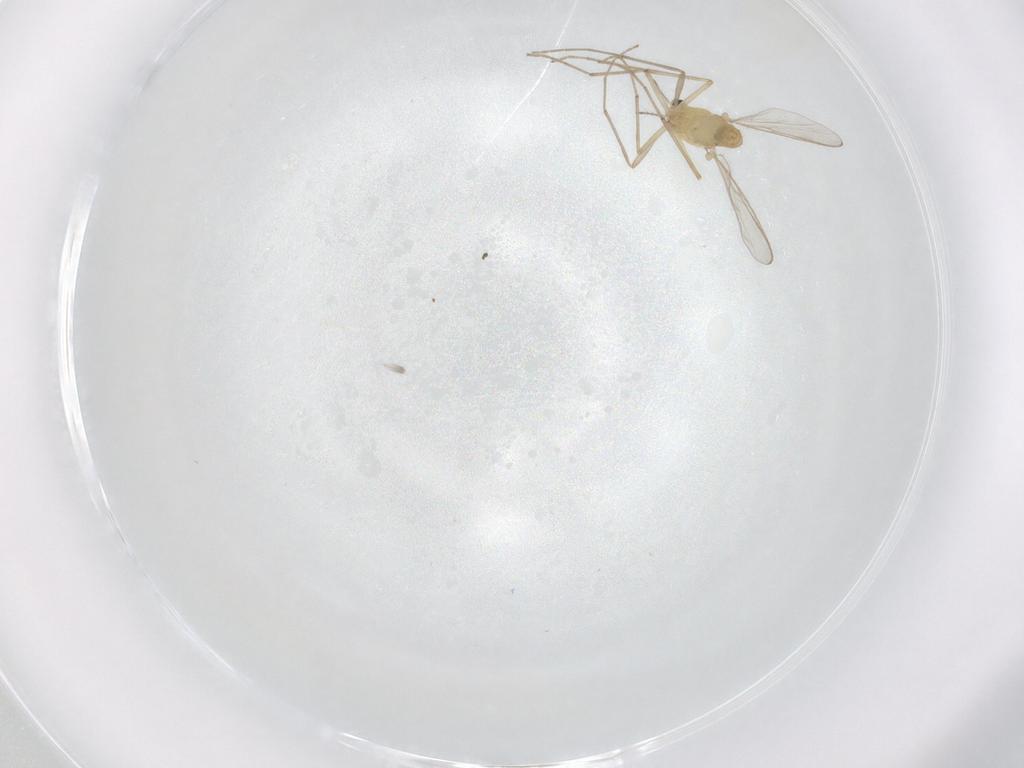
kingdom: Animalia
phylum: Arthropoda
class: Insecta
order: Diptera
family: Chironomidae
